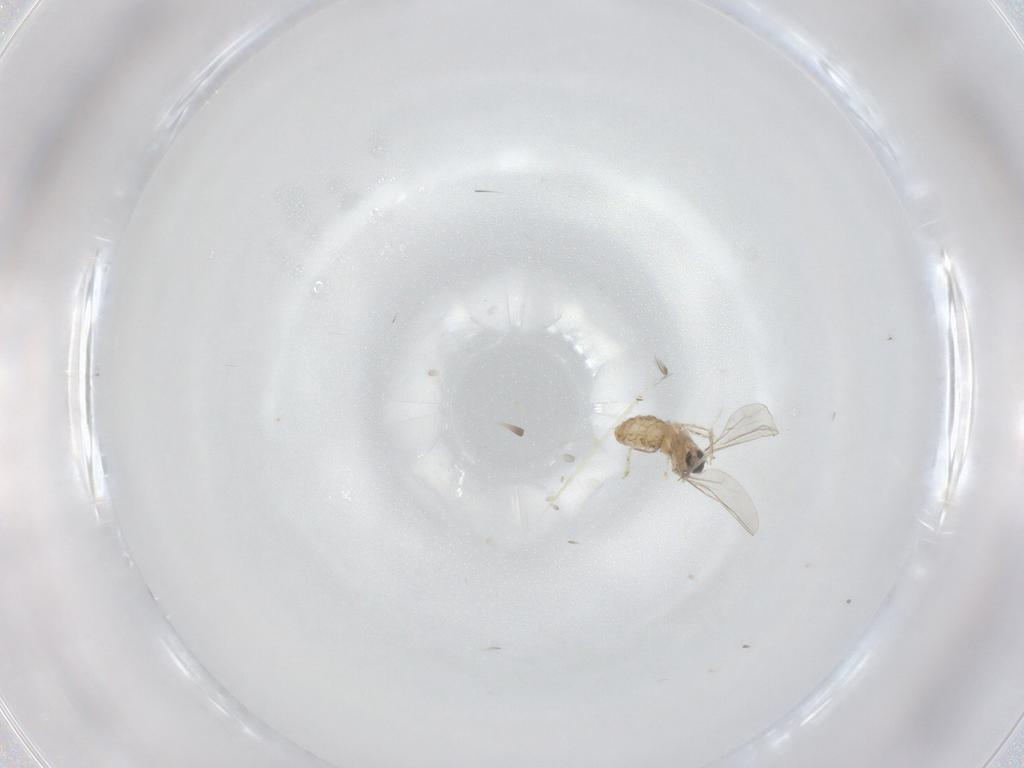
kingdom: Animalia
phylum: Arthropoda
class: Insecta
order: Diptera
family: Cecidomyiidae
